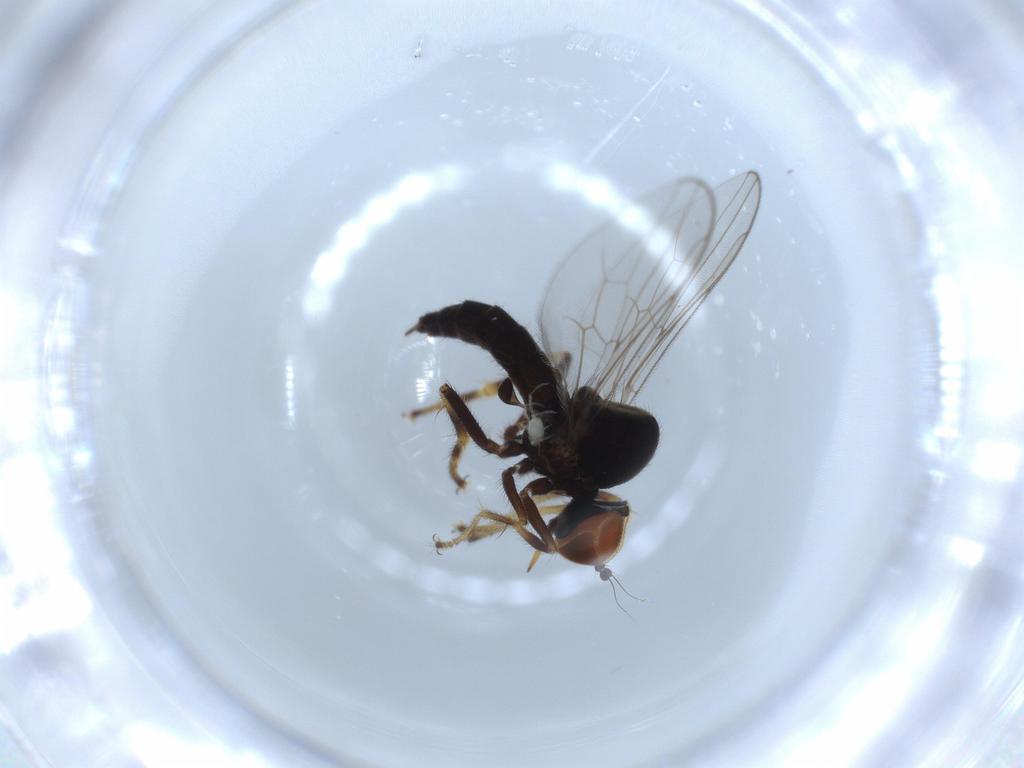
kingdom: Animalia
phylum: Arthropoda
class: Insecta
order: Diptera
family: Hybotidae
